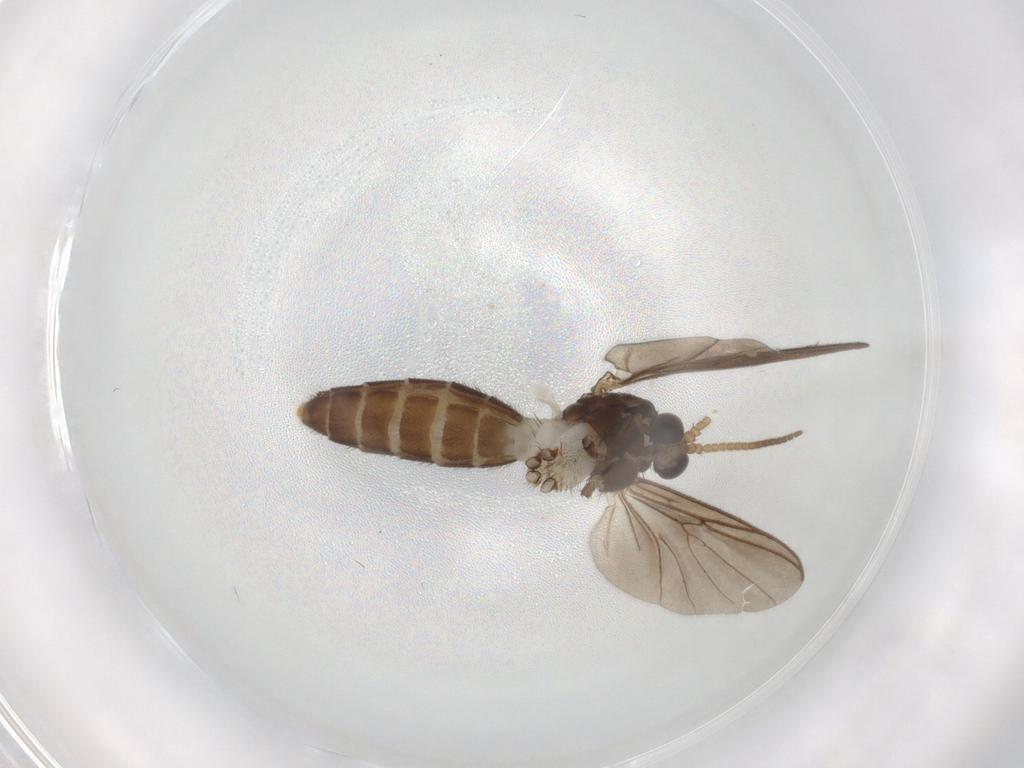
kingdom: Animalia
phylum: Arthropoda
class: Insecta
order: Diptera
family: Mycetophilidae
